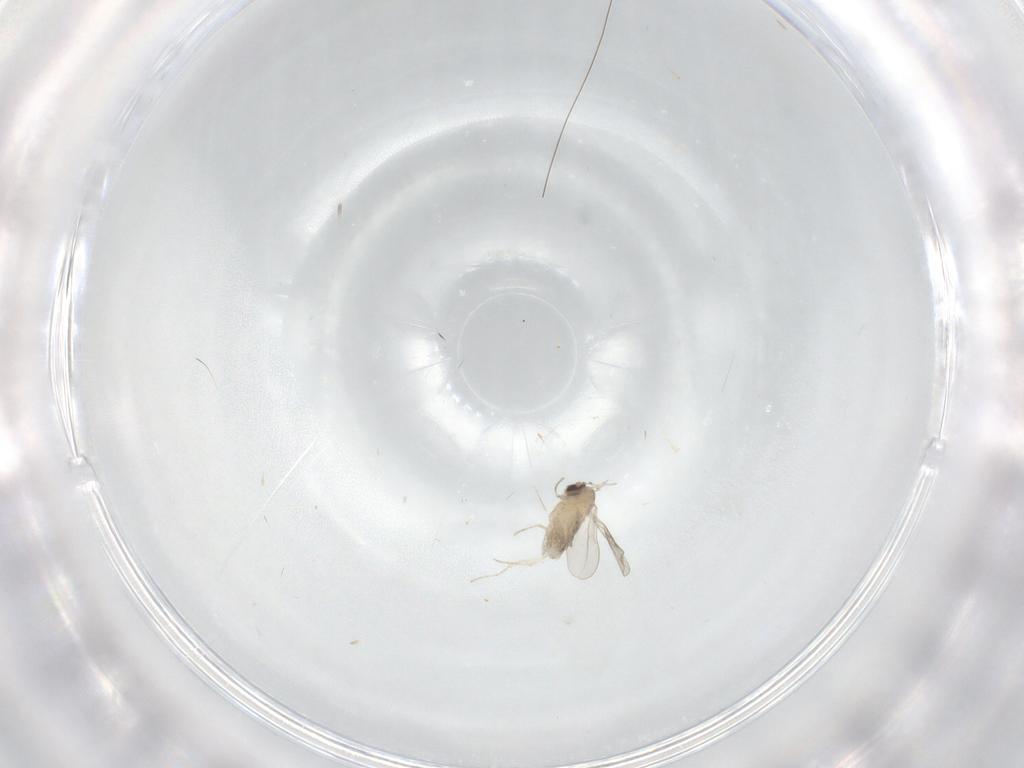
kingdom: Animalia
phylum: Arthropoda
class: Insecta
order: Diptera
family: Cecidomyiidae
